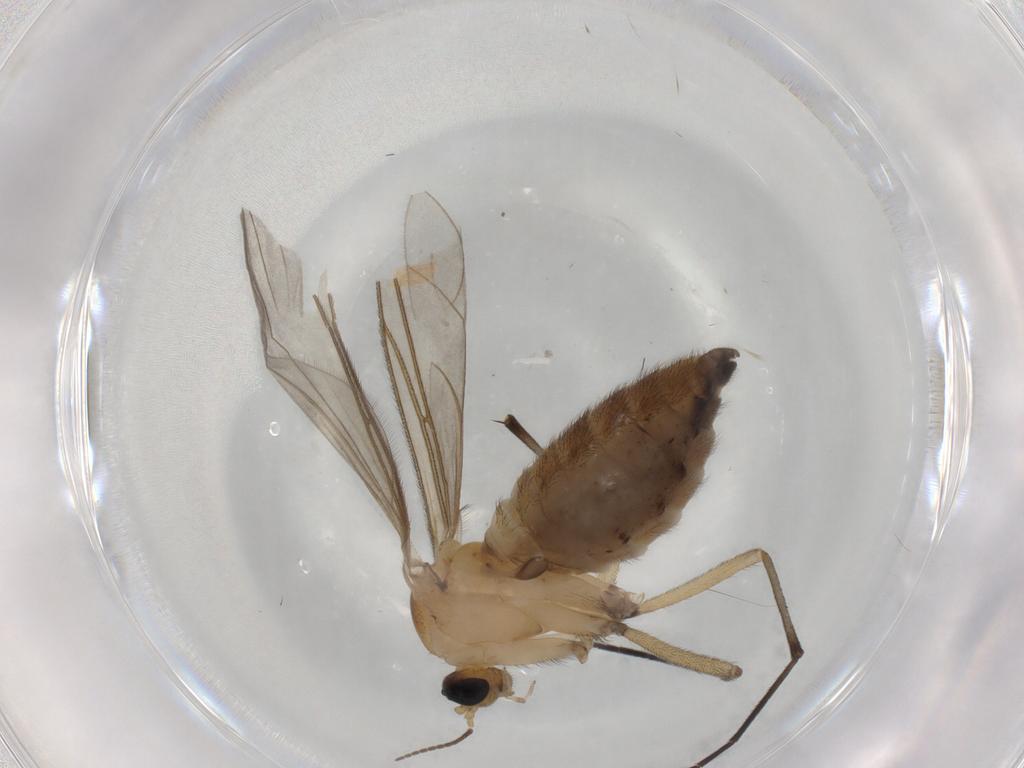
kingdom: Animalia
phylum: Arthropoda
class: Insecta
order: Diptera
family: Sciaridae
